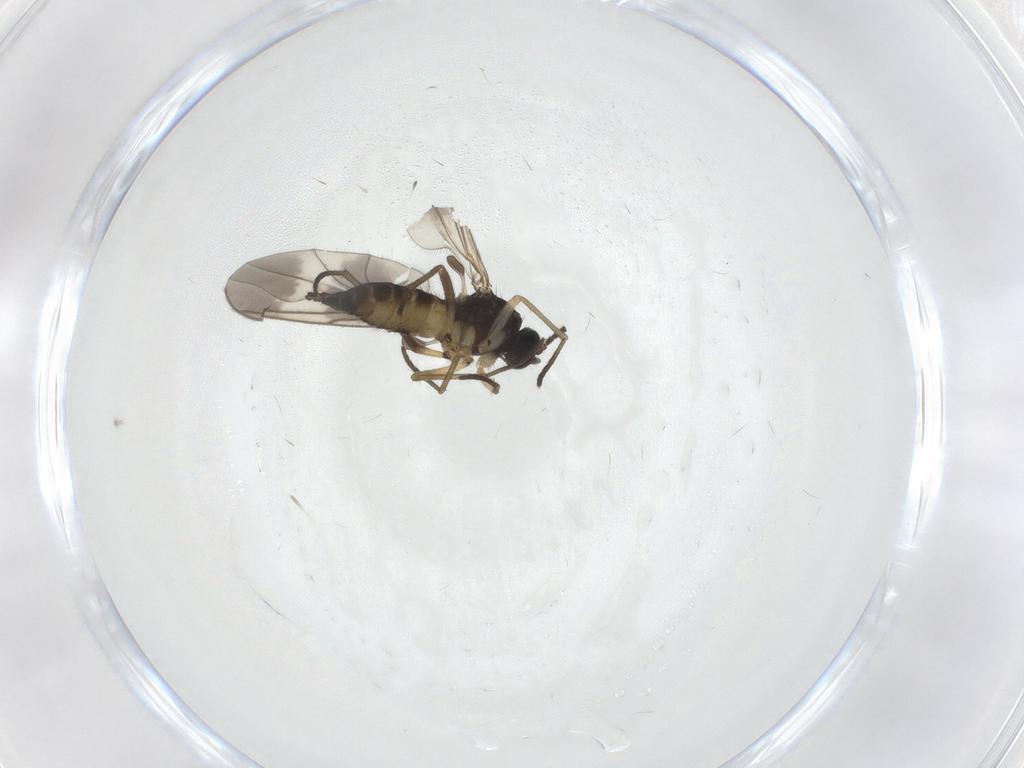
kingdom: Animalia
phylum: Arthropoda
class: Insecta
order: Diptera
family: Sciaridae
